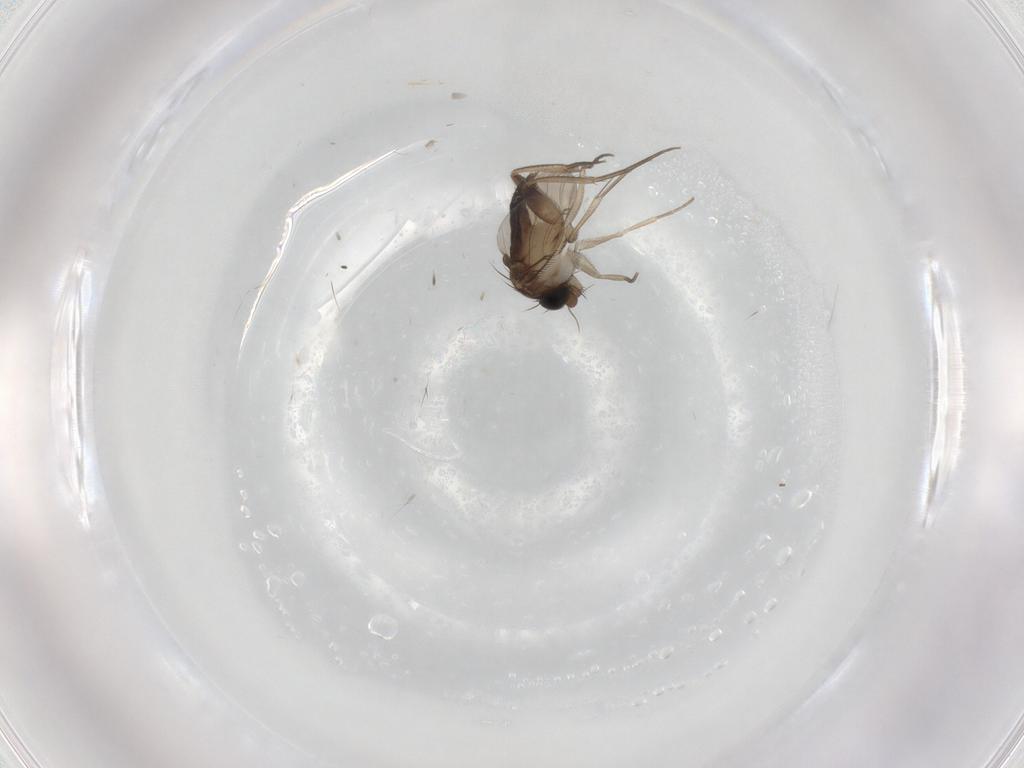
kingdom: Animalia
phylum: Arthropoda
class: Insecta
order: Diptera
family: Phoridae
